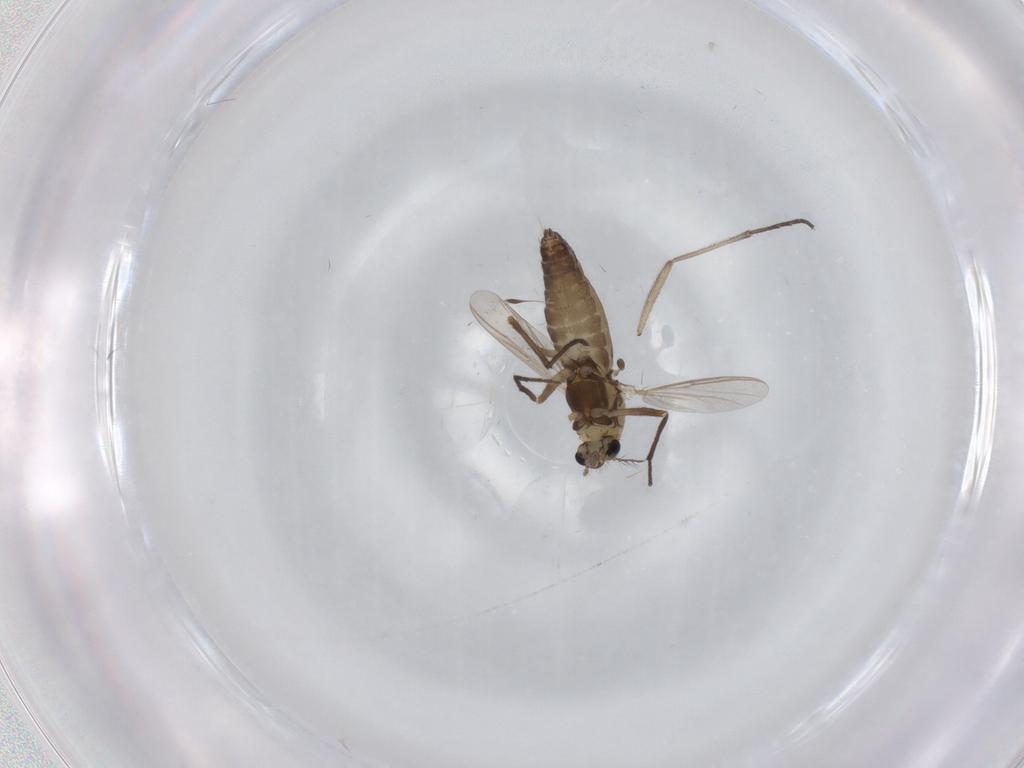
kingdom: Animalia
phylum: Arthropoda
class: Insecta
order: Diptera
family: Chironomidae
